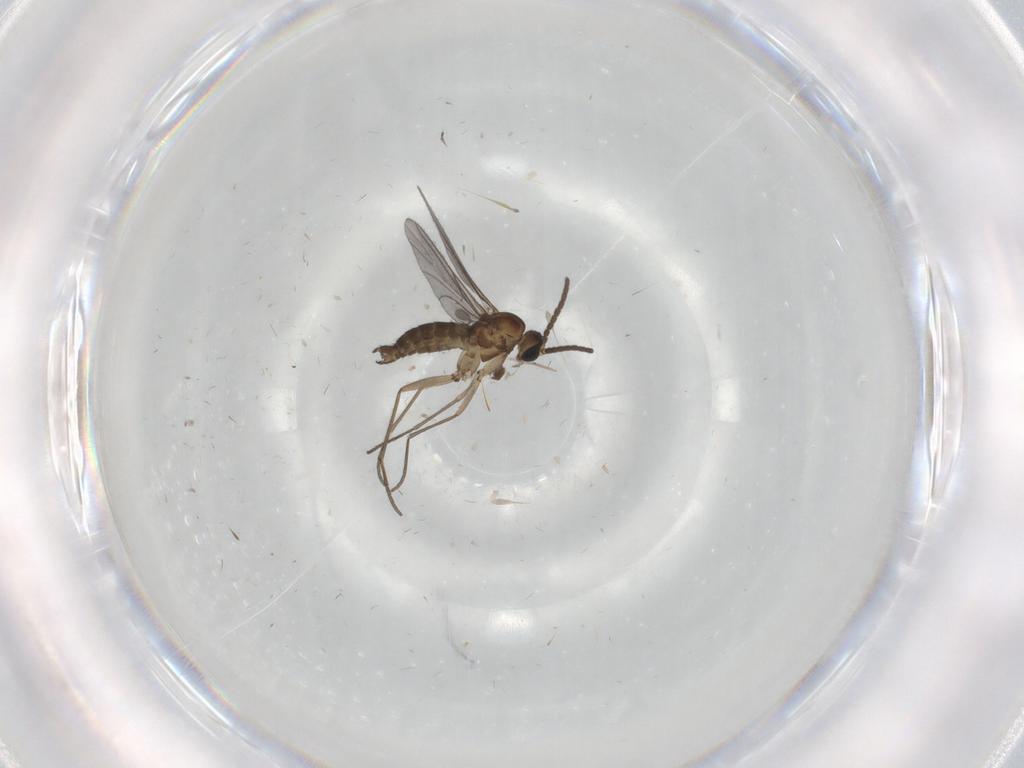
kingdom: Animalia
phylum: Arthropoda
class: Insecta
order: Diptera
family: Sciaridae
